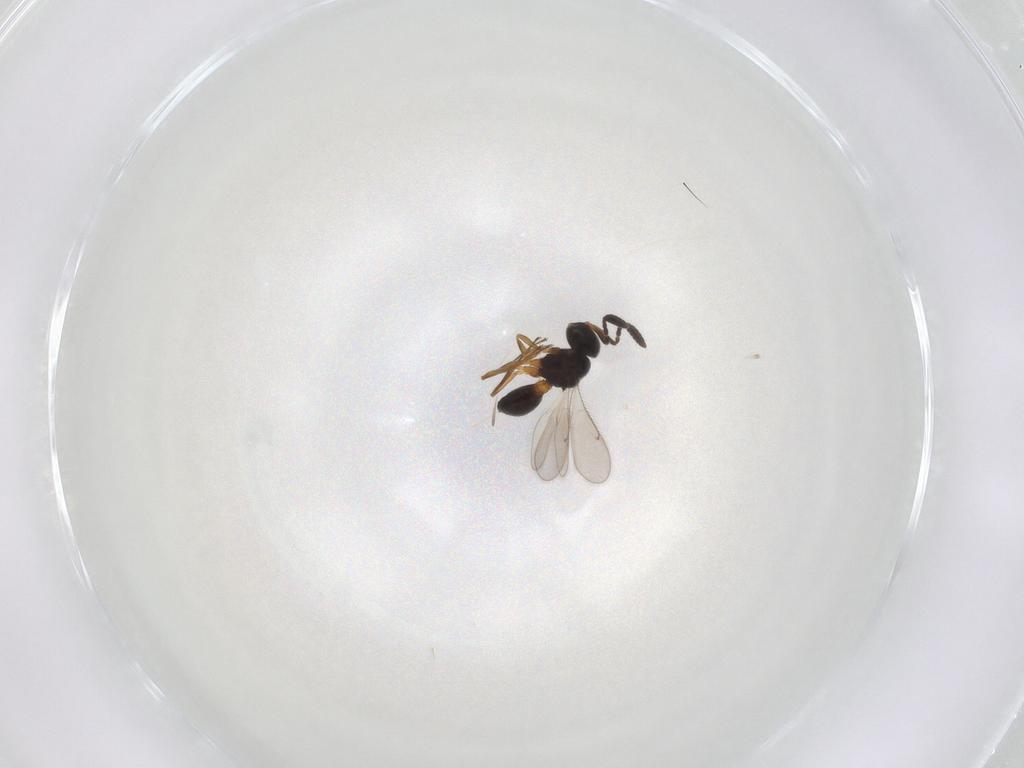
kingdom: Animalia
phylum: Arthropoda
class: Insecta
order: Hymenoptera
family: Scelionidae
